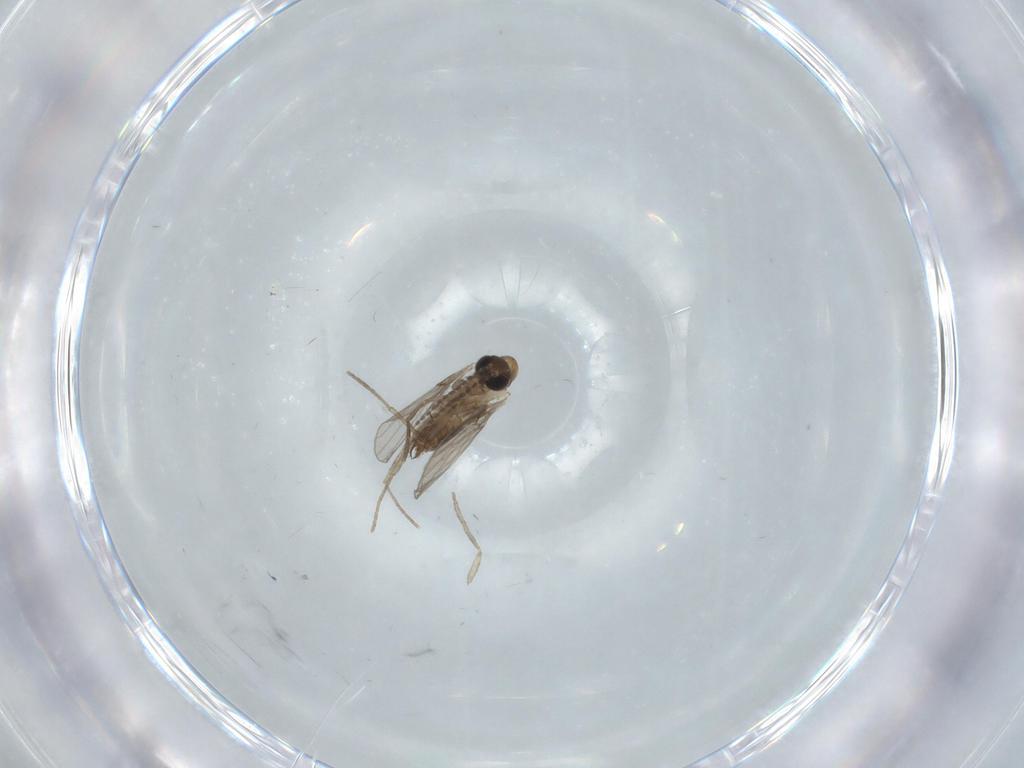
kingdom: Animalia
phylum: Arthropoda
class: Insecta
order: Diptera
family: Psychodidae
